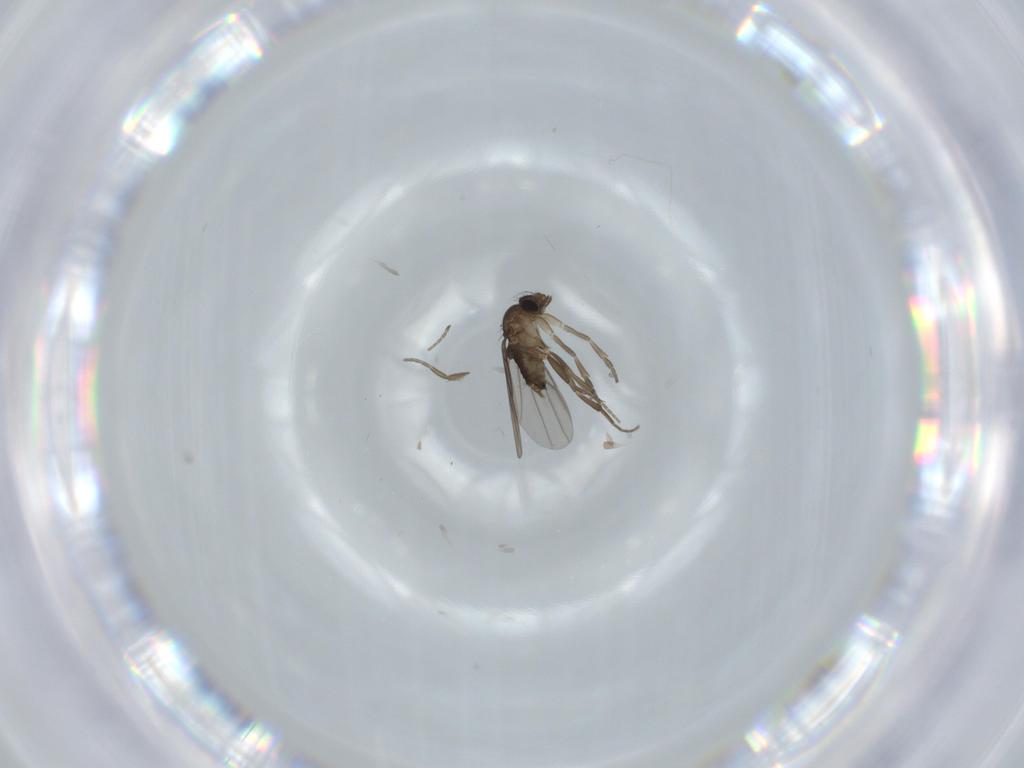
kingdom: Animalia
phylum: Arthropoda
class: Insecta
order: Diptera
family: Phoridae
